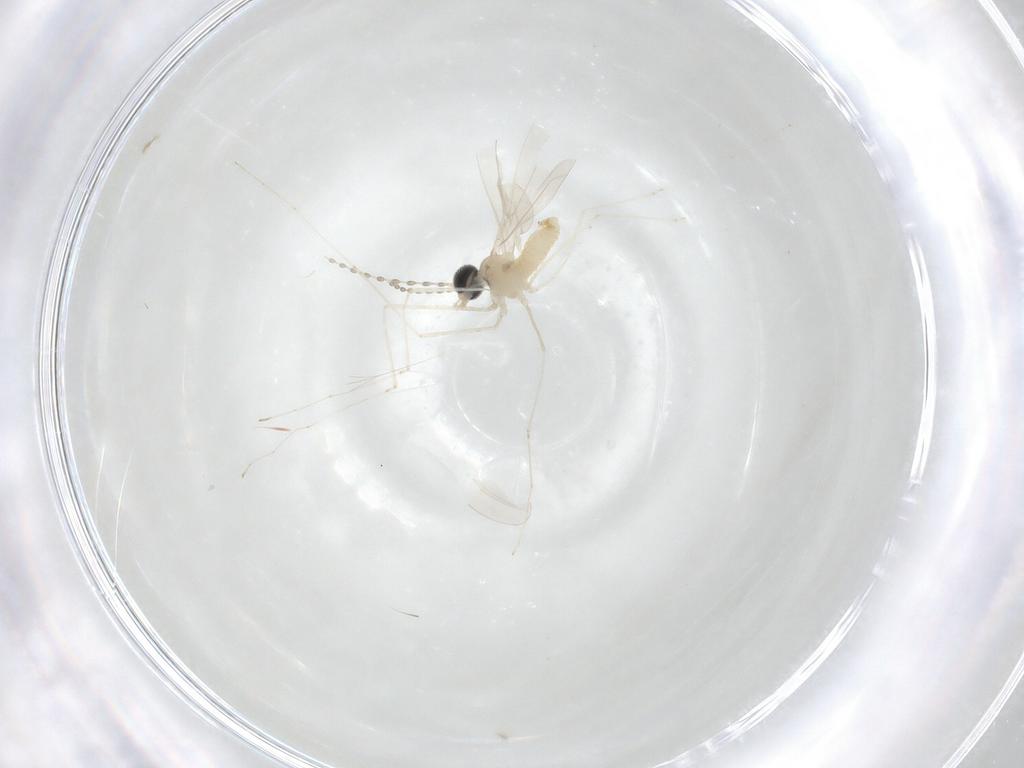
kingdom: Animalia
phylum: Arthropoda
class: Insecta
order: Diptera
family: Cecidomyiidae
